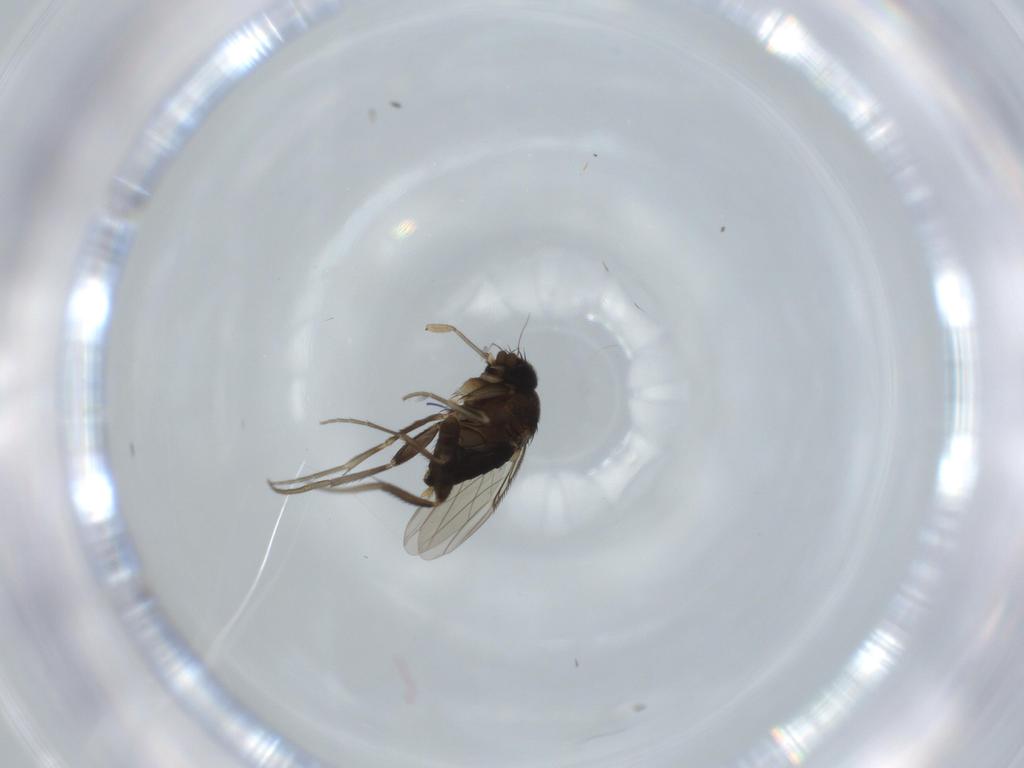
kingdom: Animalia
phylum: Arthropoda
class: Insecta
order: Diptera
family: Phoridae
